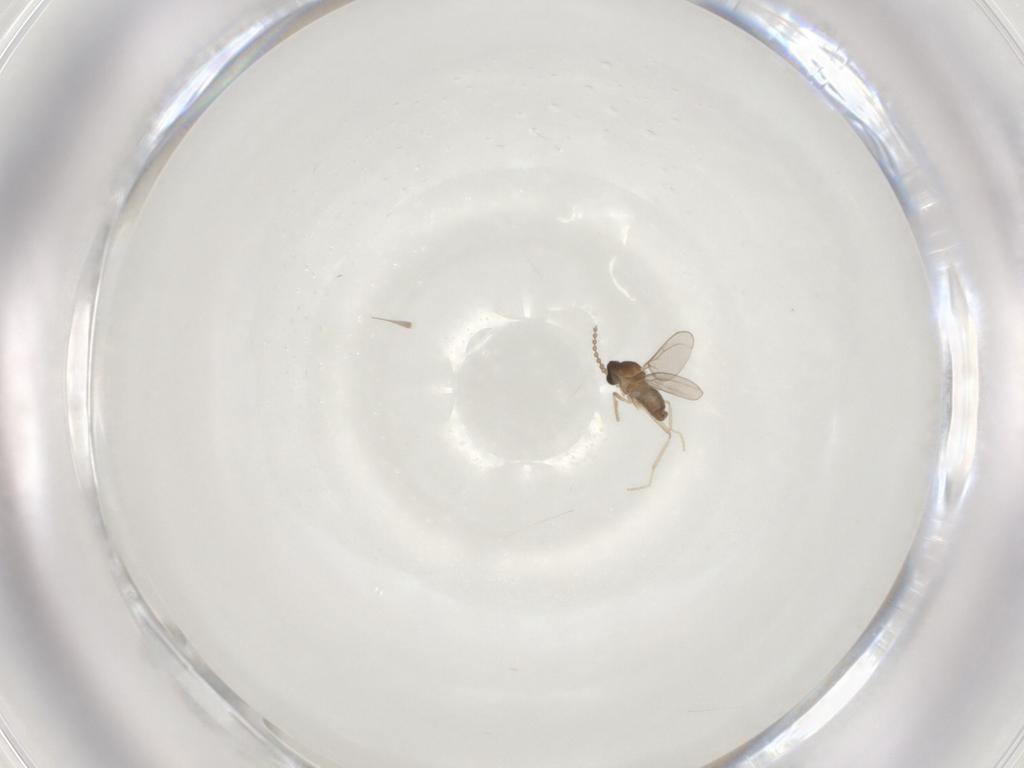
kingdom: Animalia
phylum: Arthropoda
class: Insecta
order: Diptera
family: Cecidomyiidae
